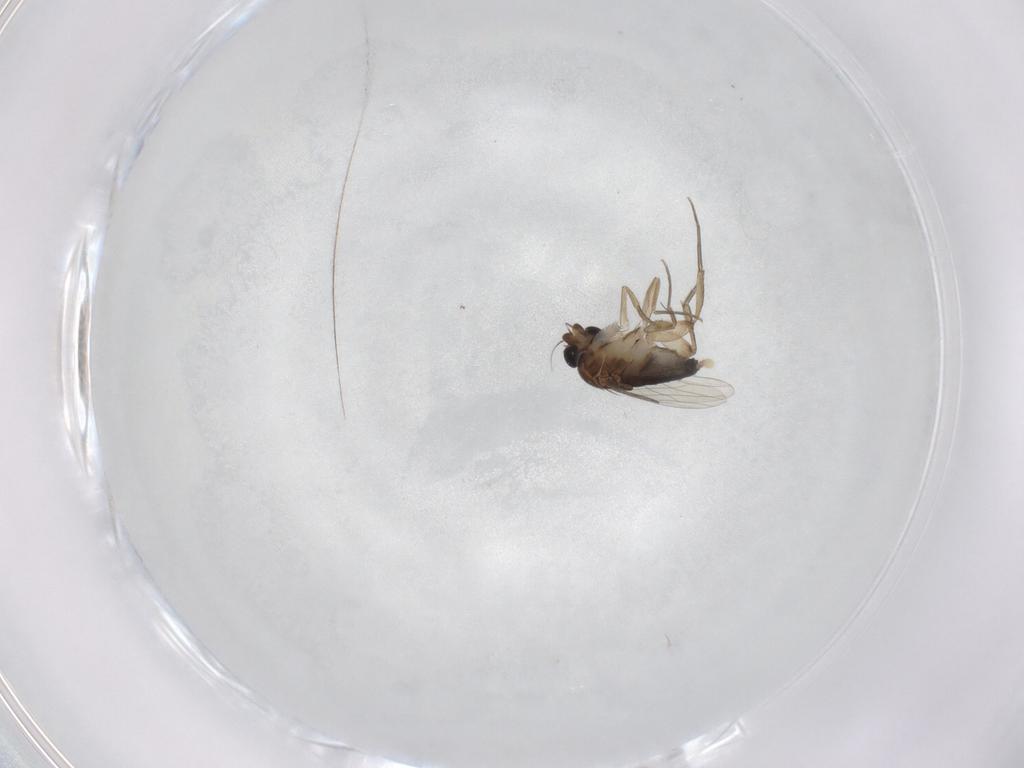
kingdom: Animalia
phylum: Arthropoda
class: Insecta
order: Diptera
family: Phoridae
